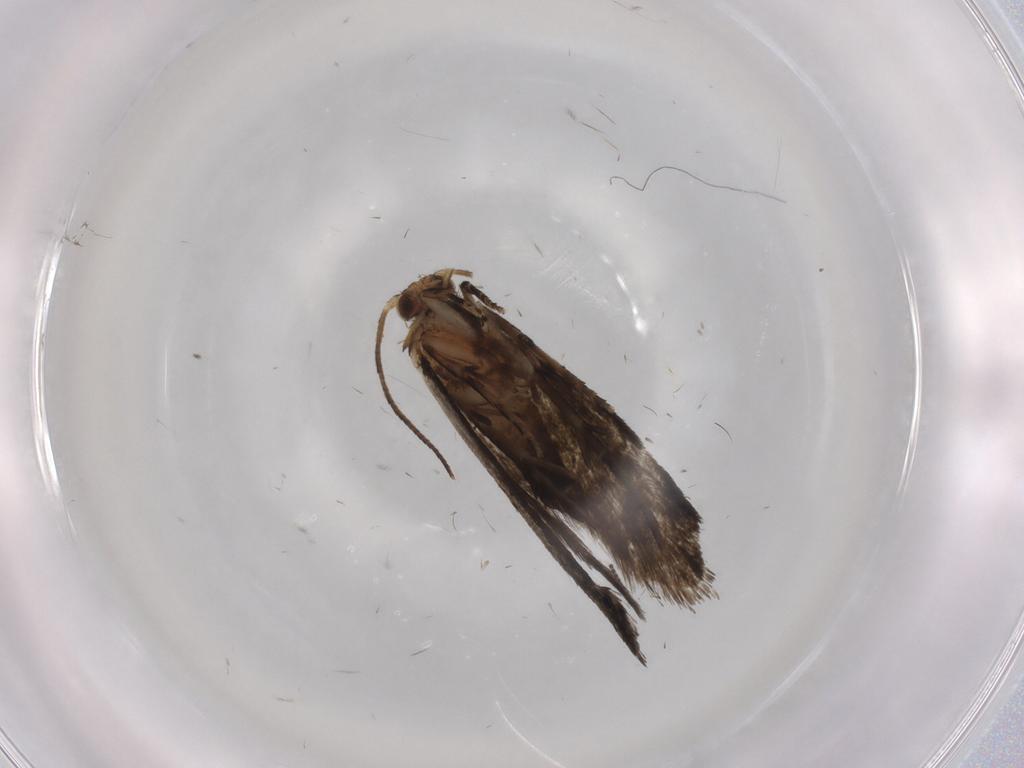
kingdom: Animalia
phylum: Arthropoda
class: Insecta
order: Lepidoptera
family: Crambidae
